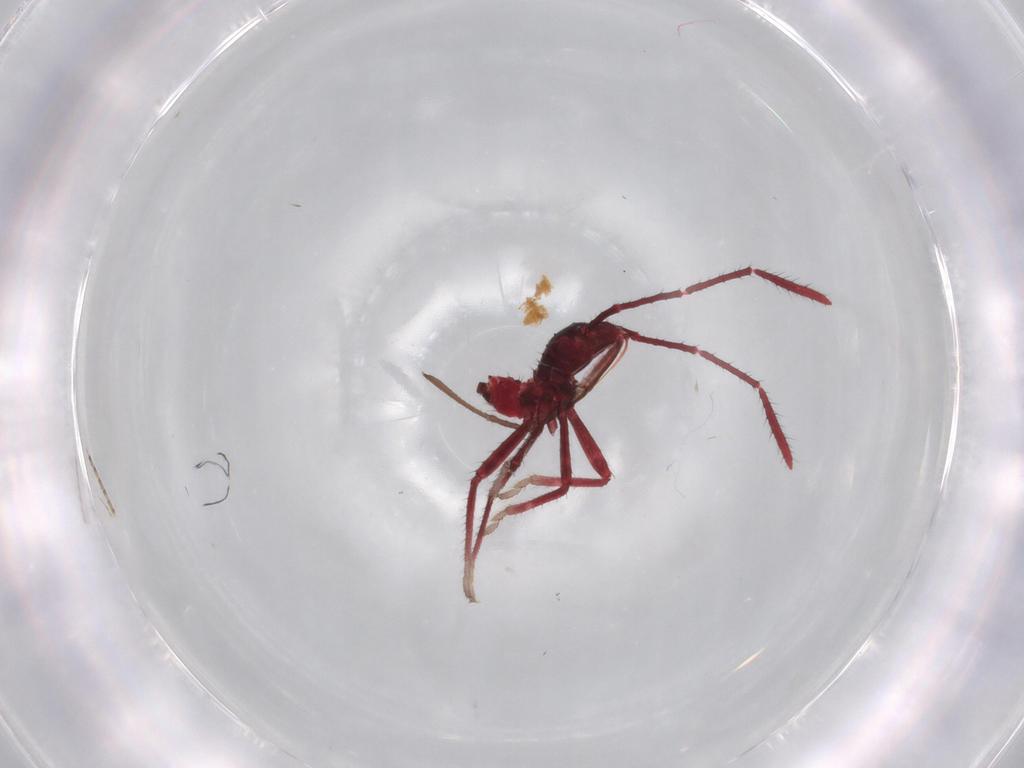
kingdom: Animalia
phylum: Arthropoda
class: Insecta
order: Hemiptera
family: Coreidae
